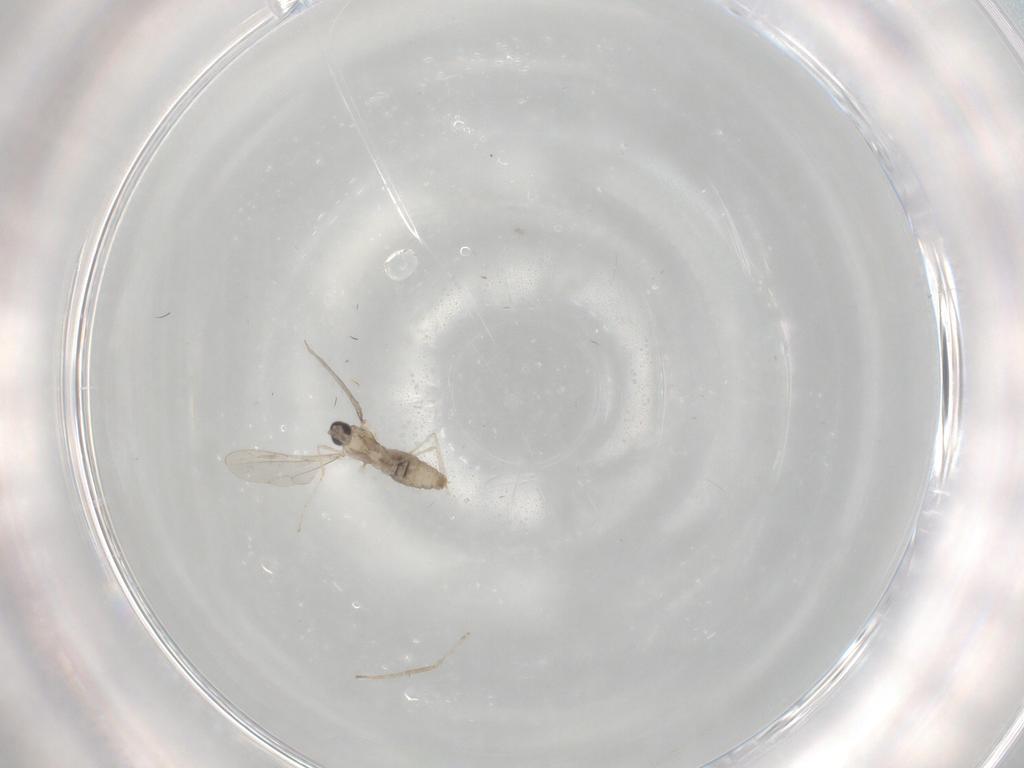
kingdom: Animalia
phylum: Arthropoda
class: Insecta
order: Diptera
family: Cecidomyiidae
